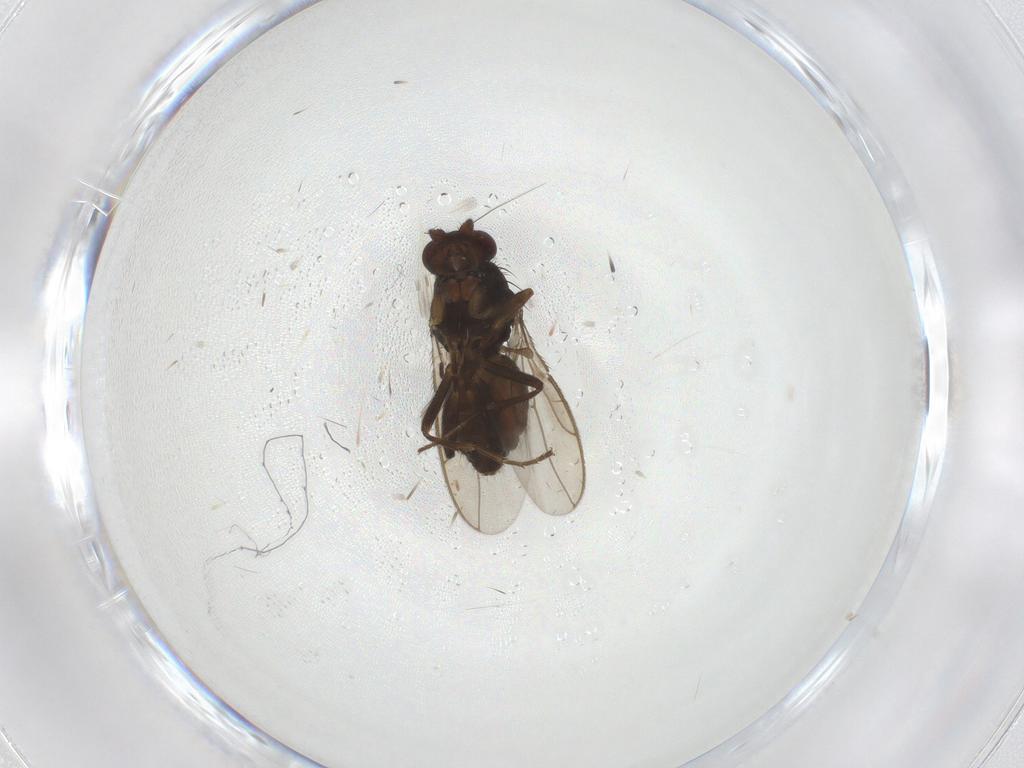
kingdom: Animalia
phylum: Arthropoda
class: Insecta
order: Diptera
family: Sphaeroceridae
